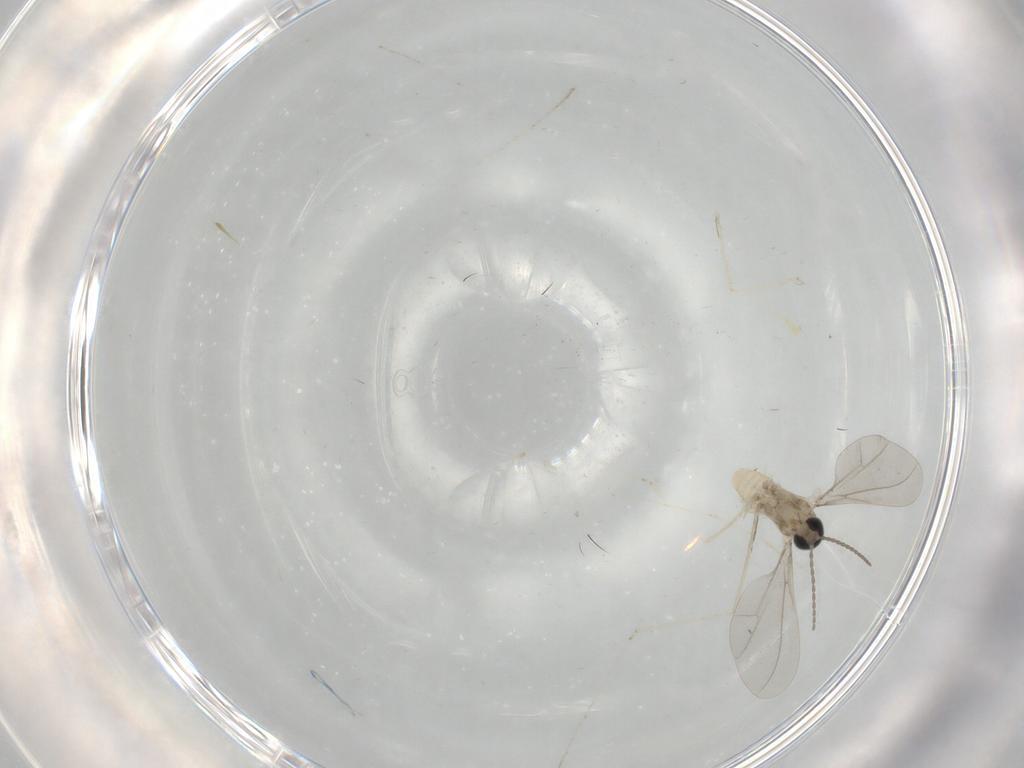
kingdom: Animalia
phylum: Arthropoda
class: Insecta
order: Diptera
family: Cecidomyiidae
